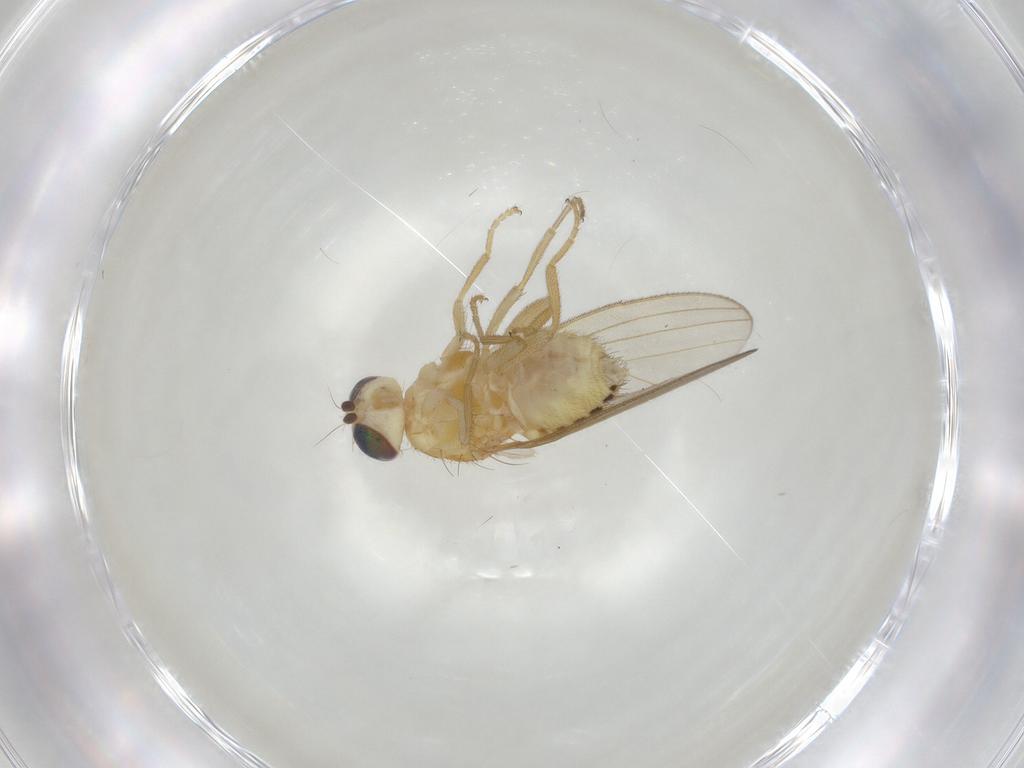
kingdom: Animalia
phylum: Arthropoda
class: Insecta
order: Diptera
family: Chyromyidae
